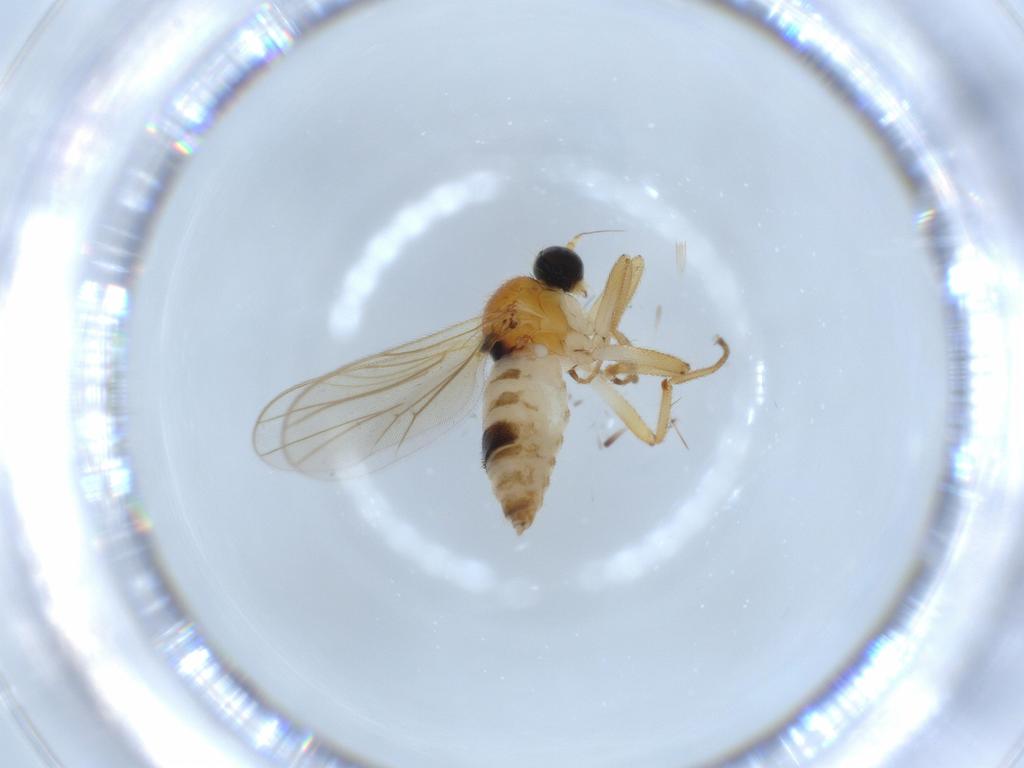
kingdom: Animalia
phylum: Arthropoda
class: Insecta
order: Diptera
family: Hybotidae
